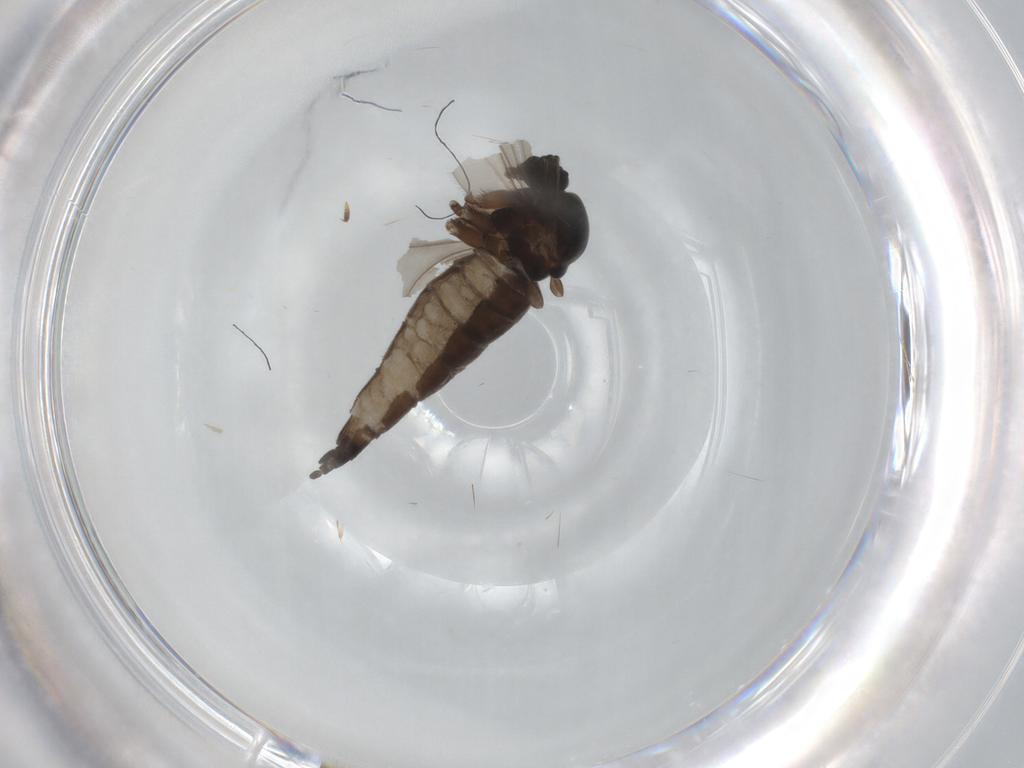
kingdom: Animalia
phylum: Arthropoda
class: Insecta
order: Diptera
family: Sciaridae
